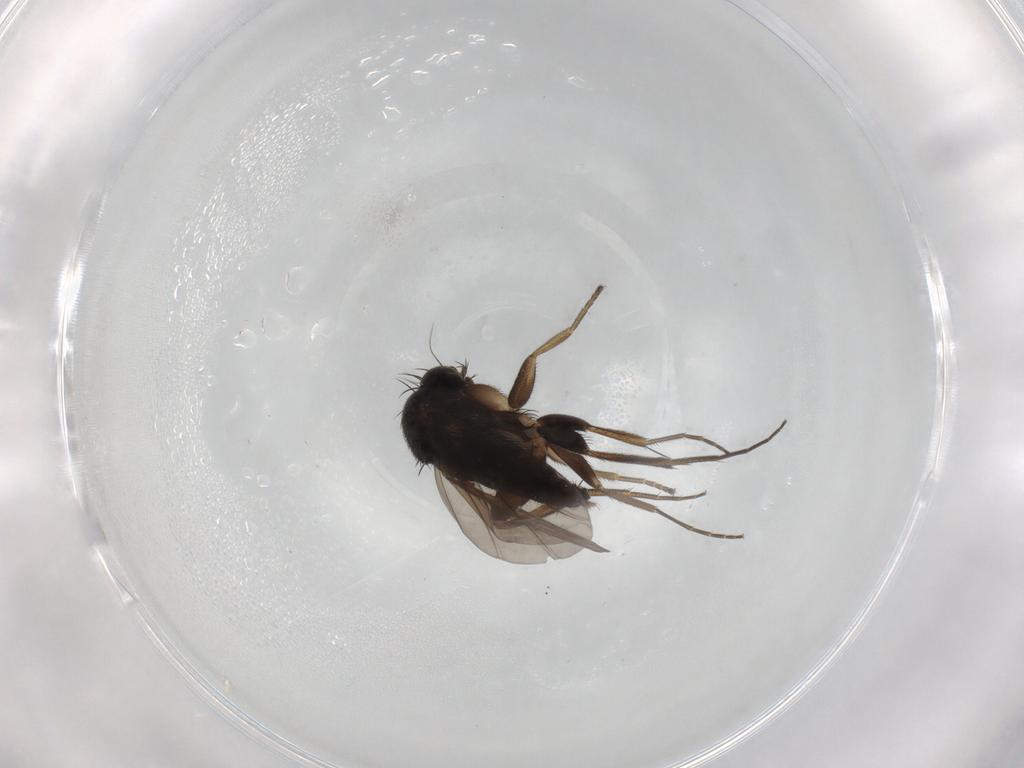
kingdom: Animalia
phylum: Arthropoda
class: Insecta
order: Diptera
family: Phoridae
